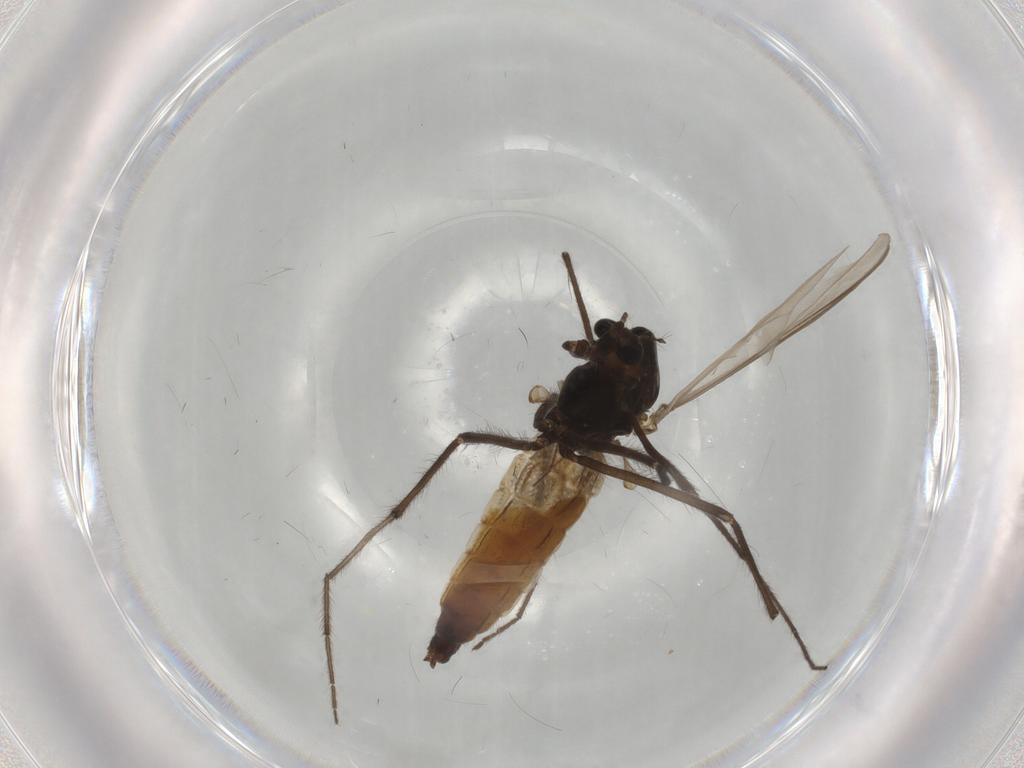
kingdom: Animalia
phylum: Arthropoda
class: Insecta
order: Diptera
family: Chironomidae
